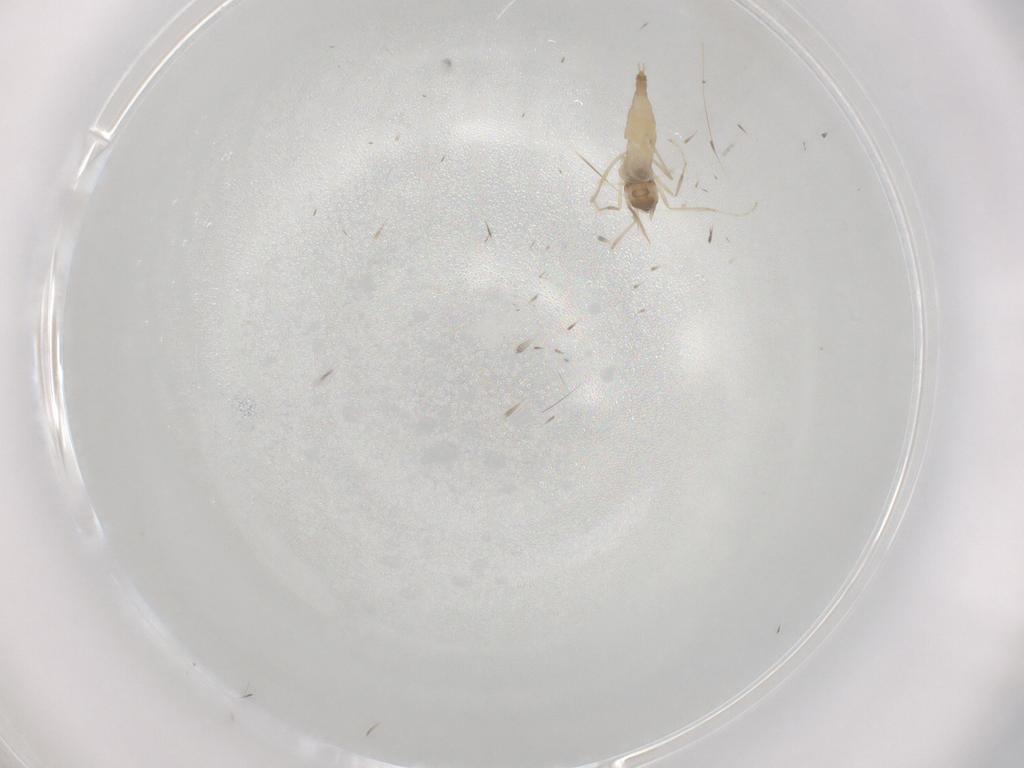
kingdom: Animalia
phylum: Arthropoda
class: Insecta
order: Diptera
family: Cecidomyiidae
